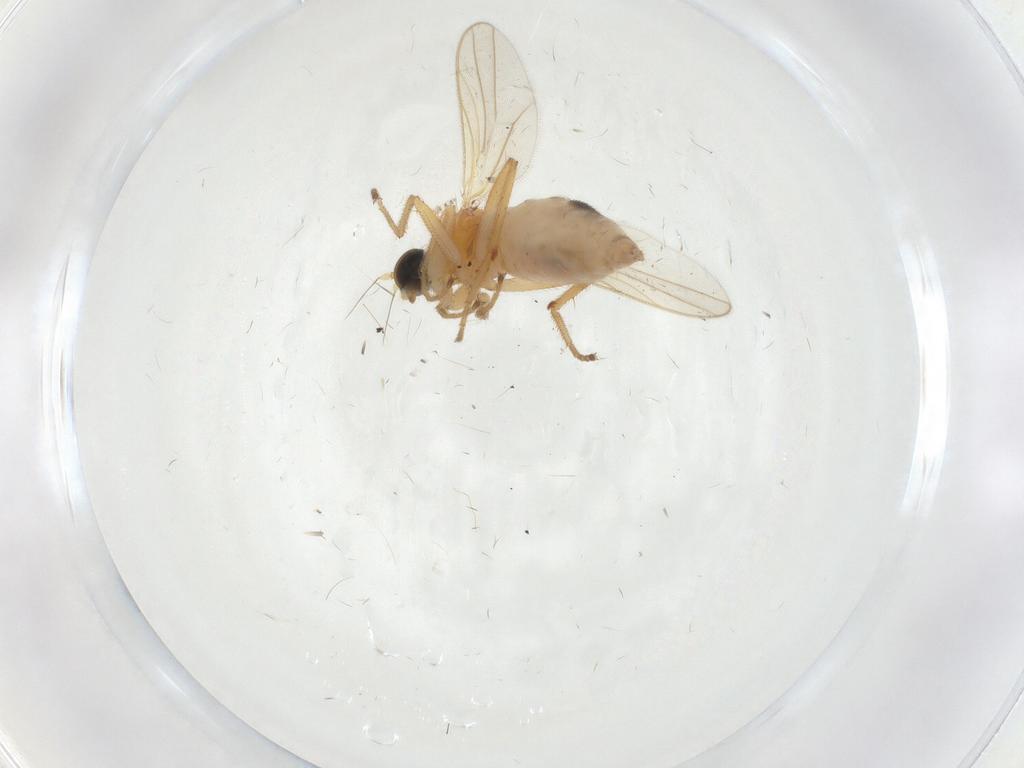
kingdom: Animalia
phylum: Arthropoda
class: Insecta
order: Diptera
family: Hybotidae
